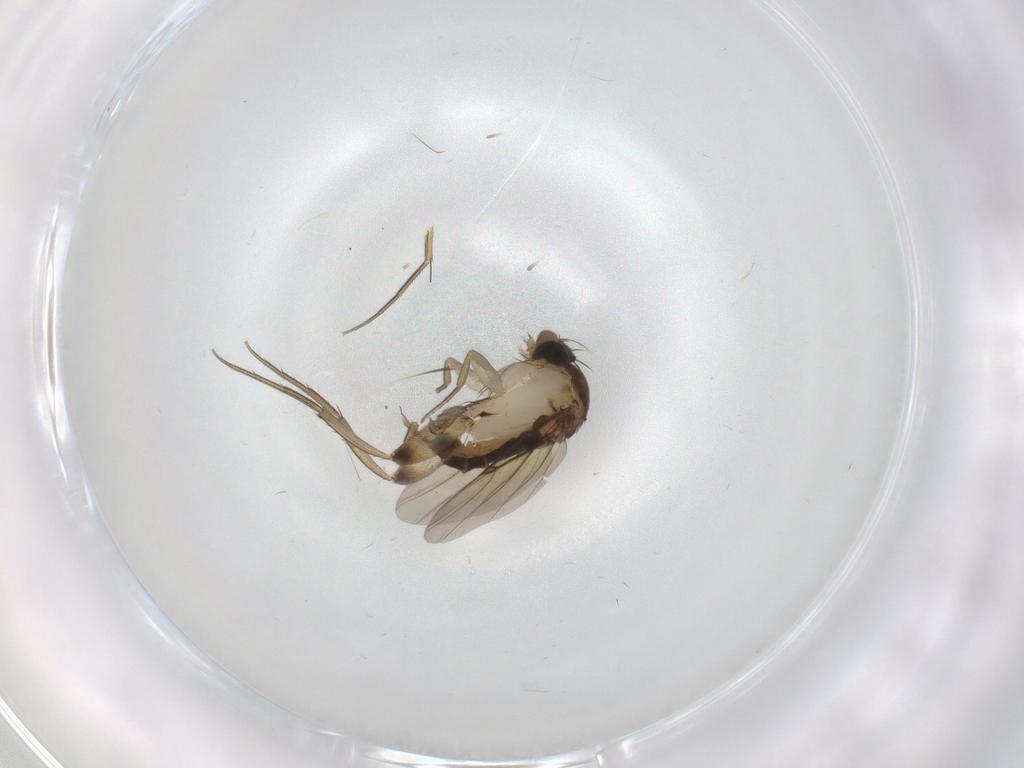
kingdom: Animalia
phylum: Arthropoda
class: Insecta
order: Diptera
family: Phoridae
